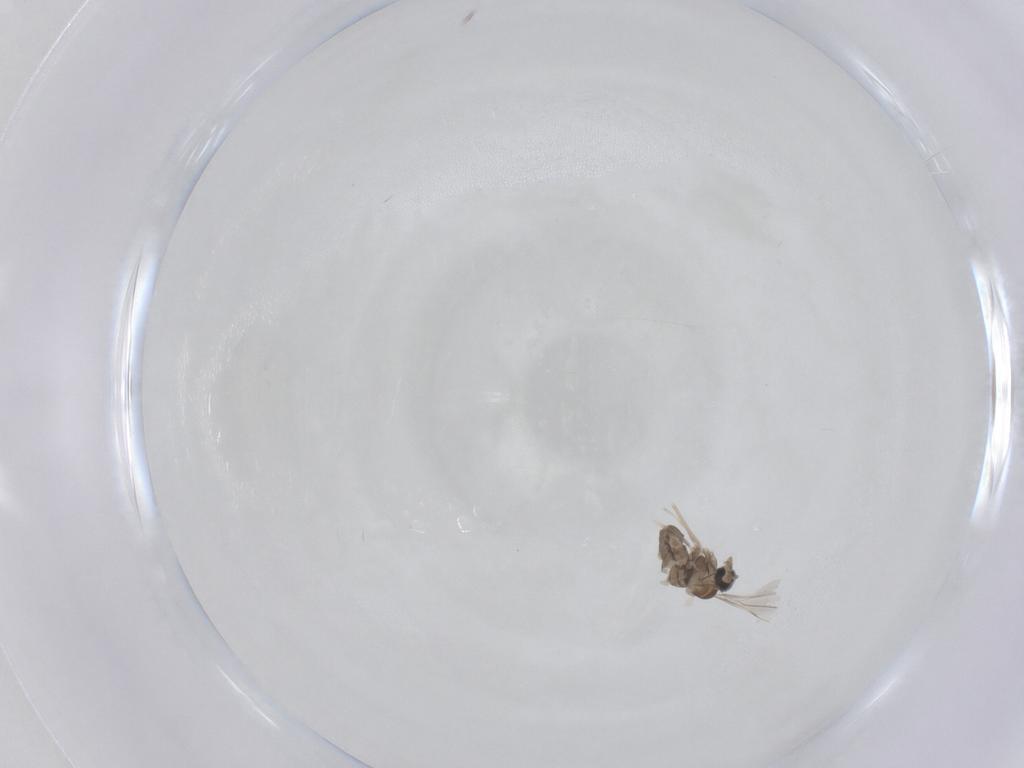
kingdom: Animalia
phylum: Arthropoda
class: Insecta
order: Diptera
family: Cecidomyiidae
